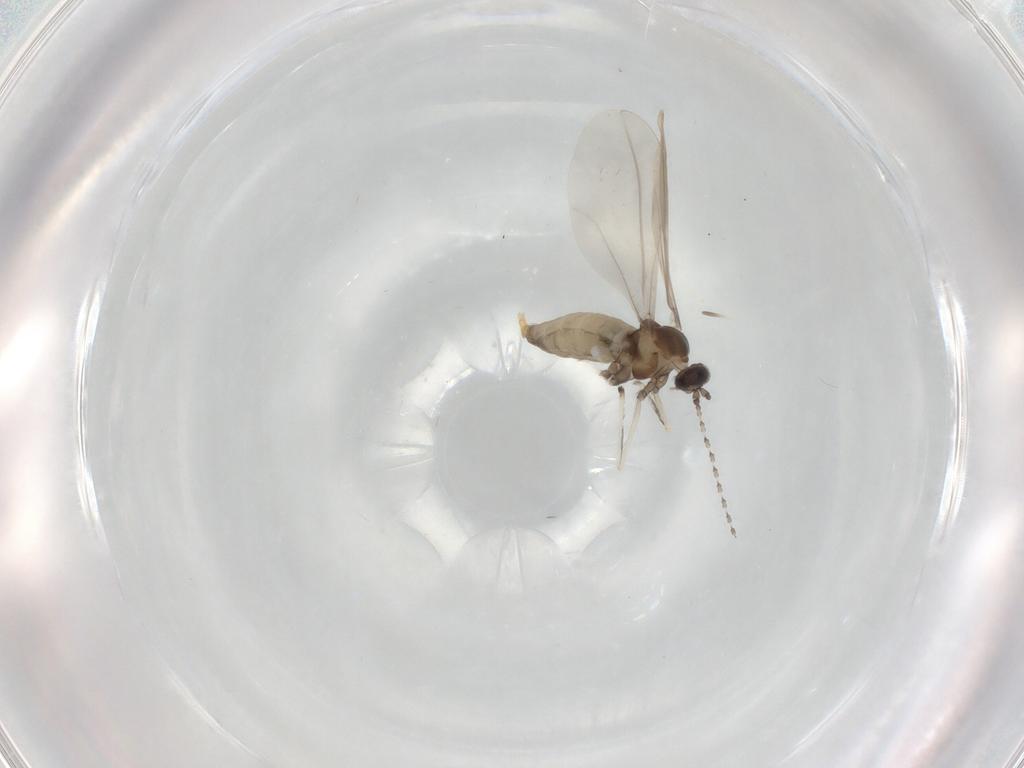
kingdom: Animalia
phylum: Arthropoda
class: Insecta
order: Diptera
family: Cecidomyiidae
